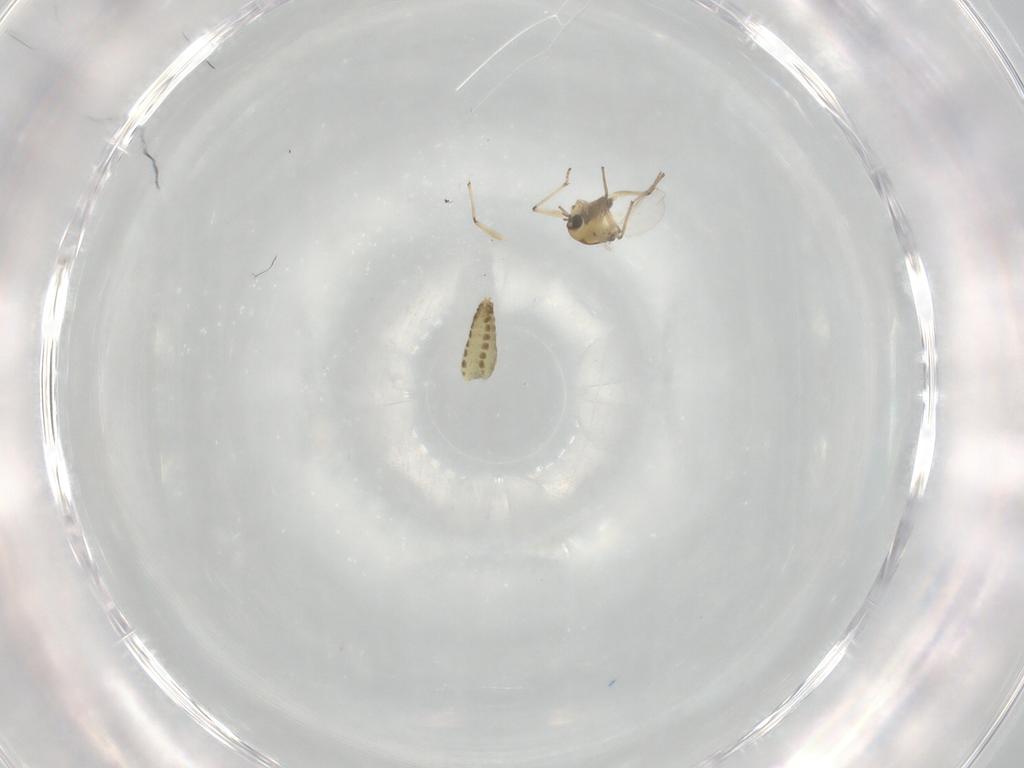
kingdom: Animalia
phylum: Arthropoda
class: Insecta
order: Diptera
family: Chironomidae
